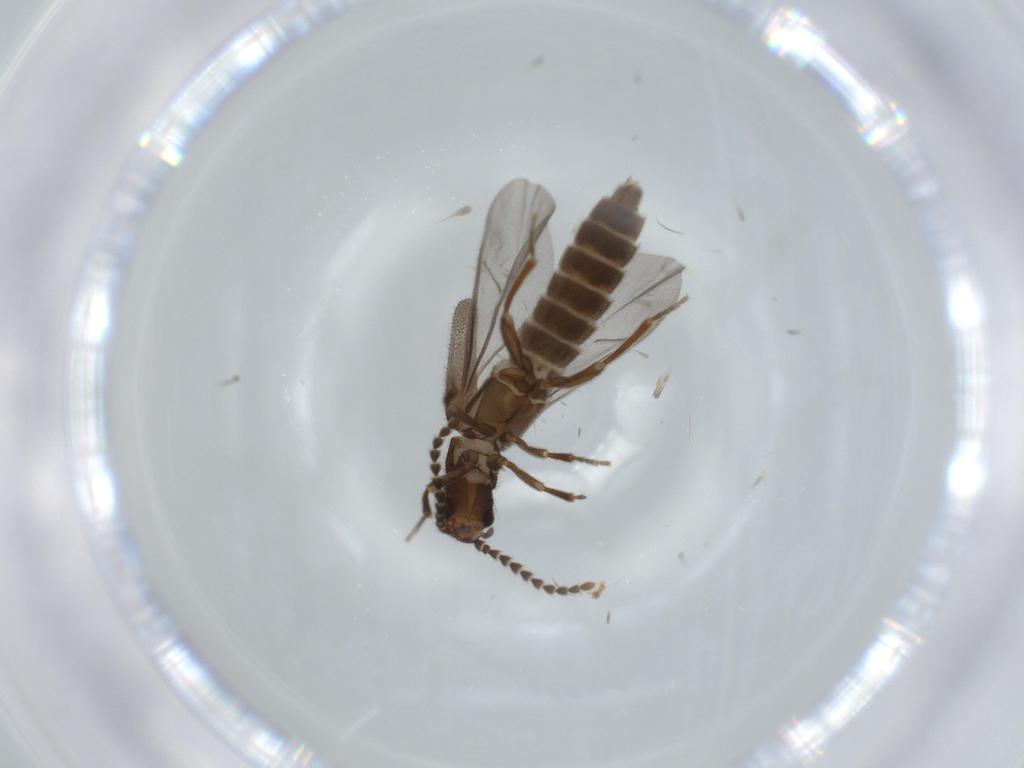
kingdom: Animalia
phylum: Arthropoda
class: Insecta
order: Coleoptera
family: Omethidae
